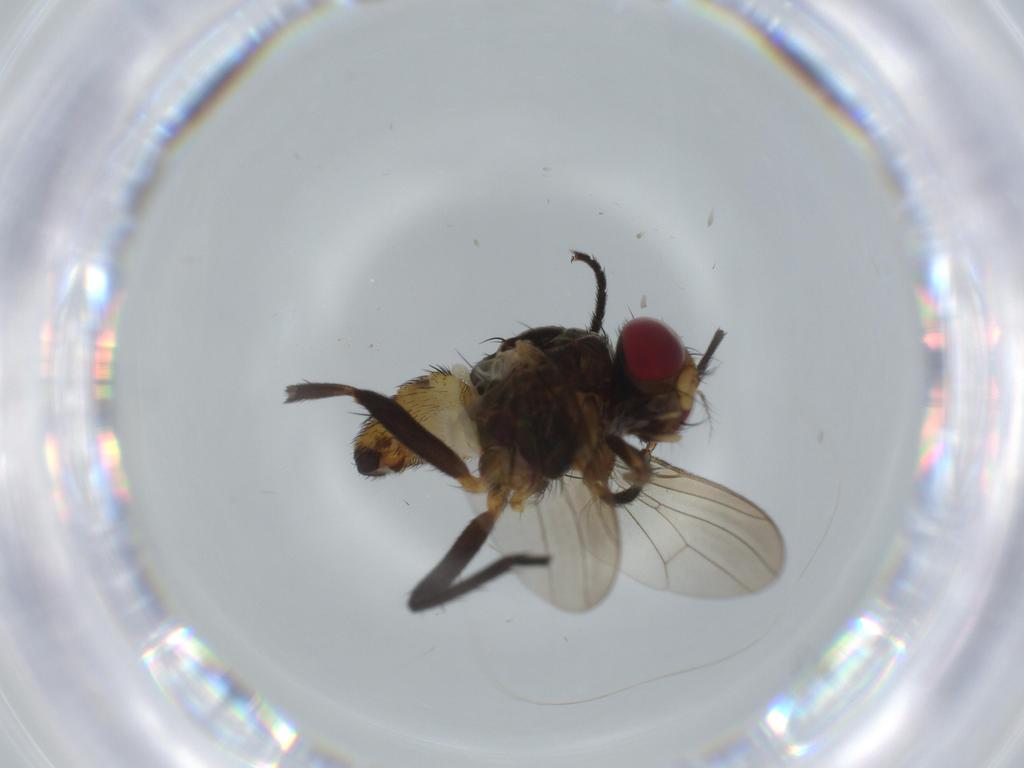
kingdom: Animalia
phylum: Arthropoda
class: Insecta
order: Diptera
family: Phoridae
